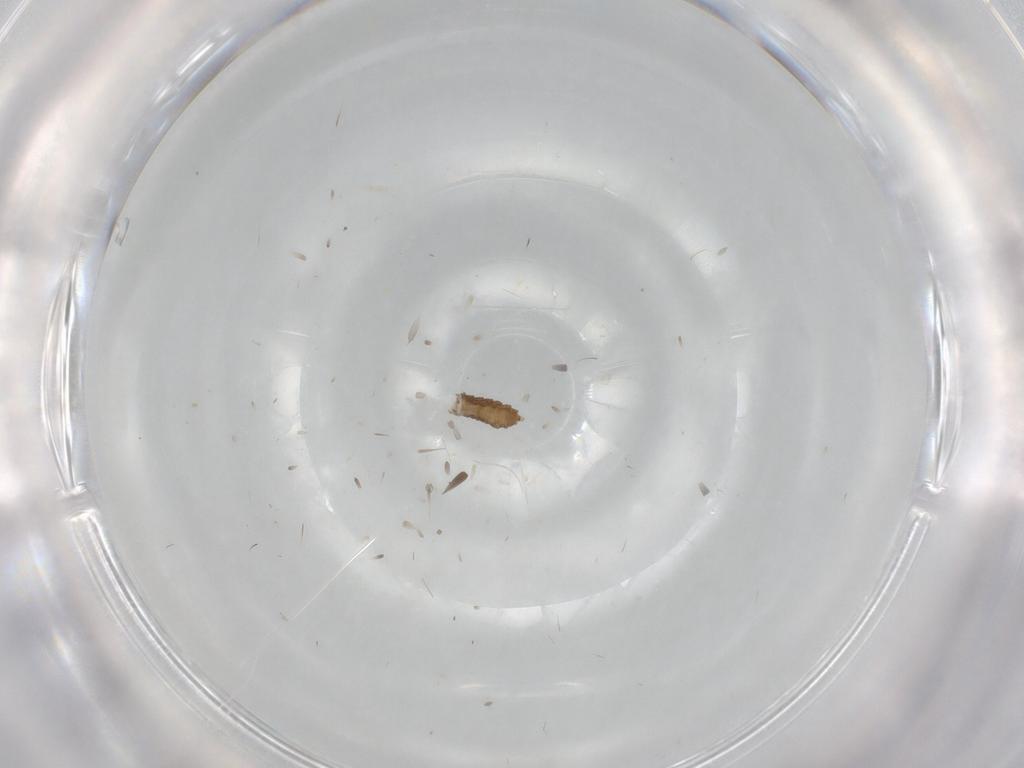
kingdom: Animalia
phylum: Arthropoda
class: Insecta
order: Diptera
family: Cecidomyiidae
